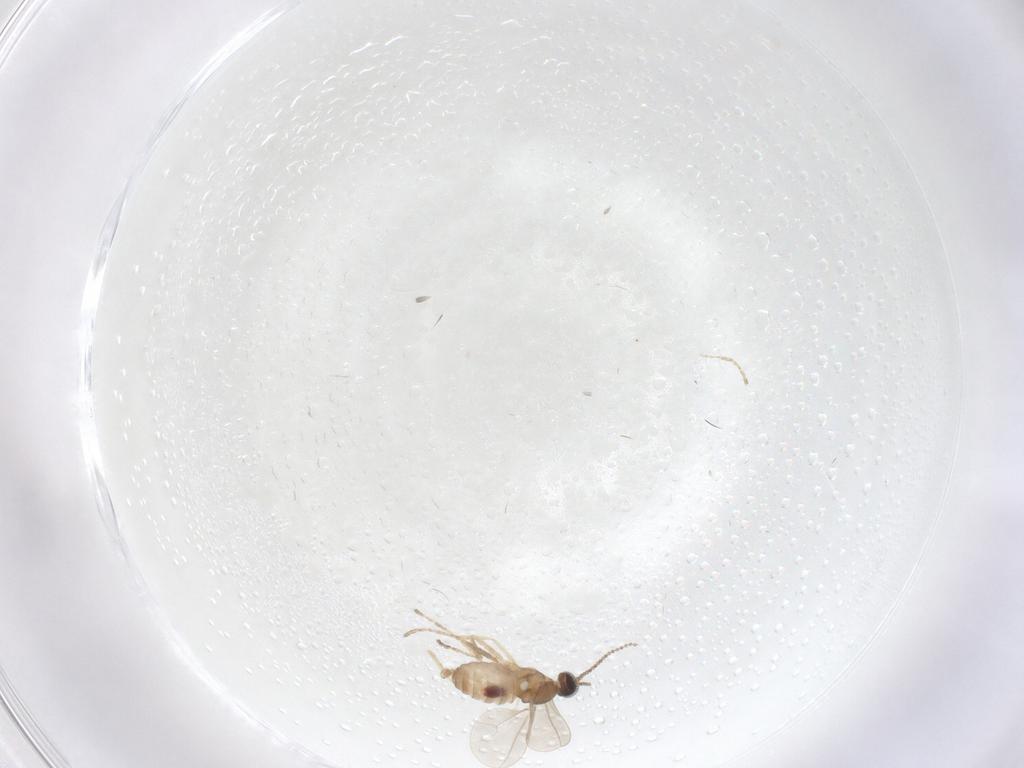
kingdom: Animalia
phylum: Arthropoda
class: Insecta
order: Diptera
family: Cecidomyiidae
